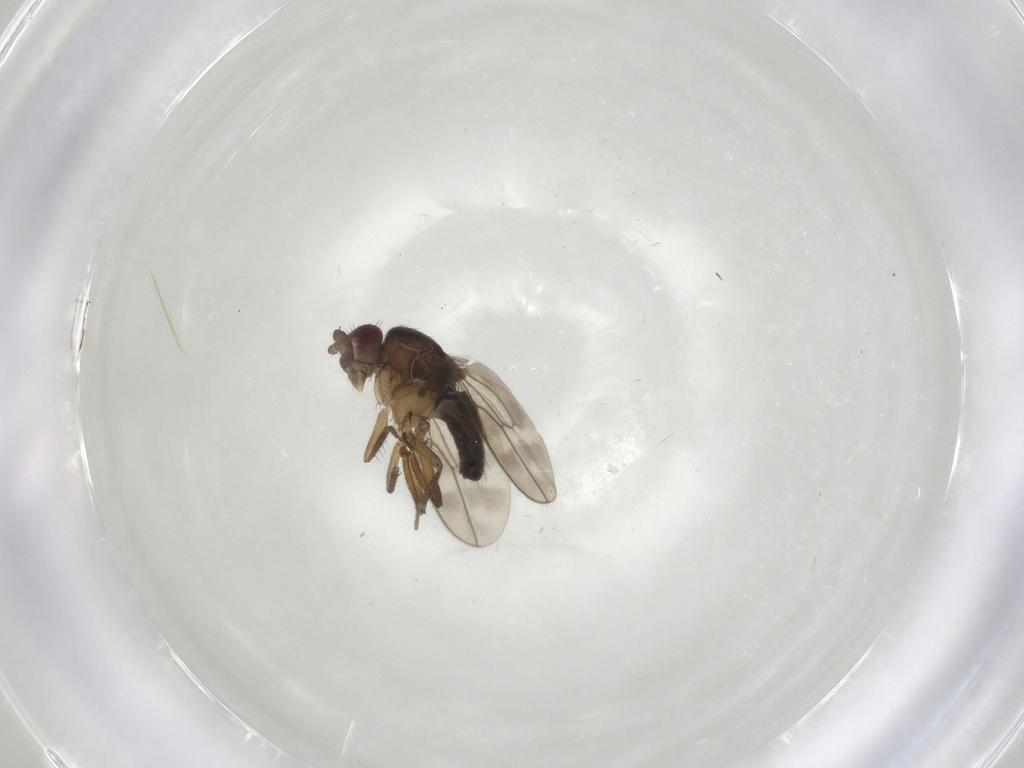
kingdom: Animalia
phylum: Arthropoda
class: Insecta
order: Diptera
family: Sphaeroceridae
